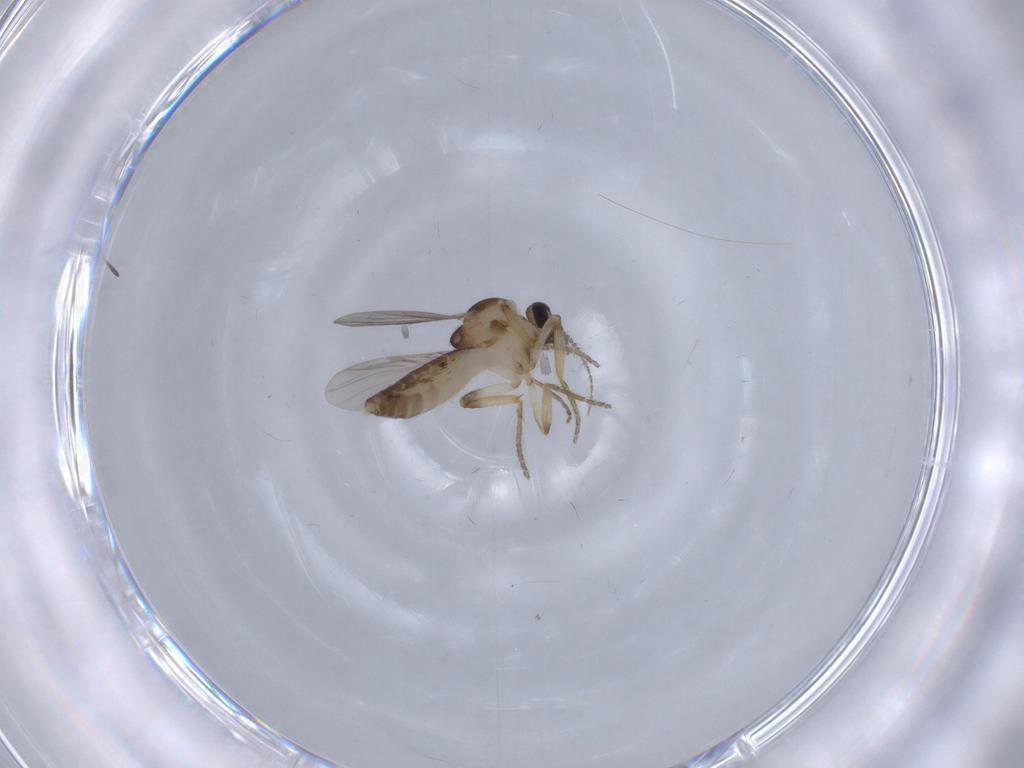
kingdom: Animalia
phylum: Arthropoda
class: Insecta
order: Diptera
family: Ceratopogonidae
